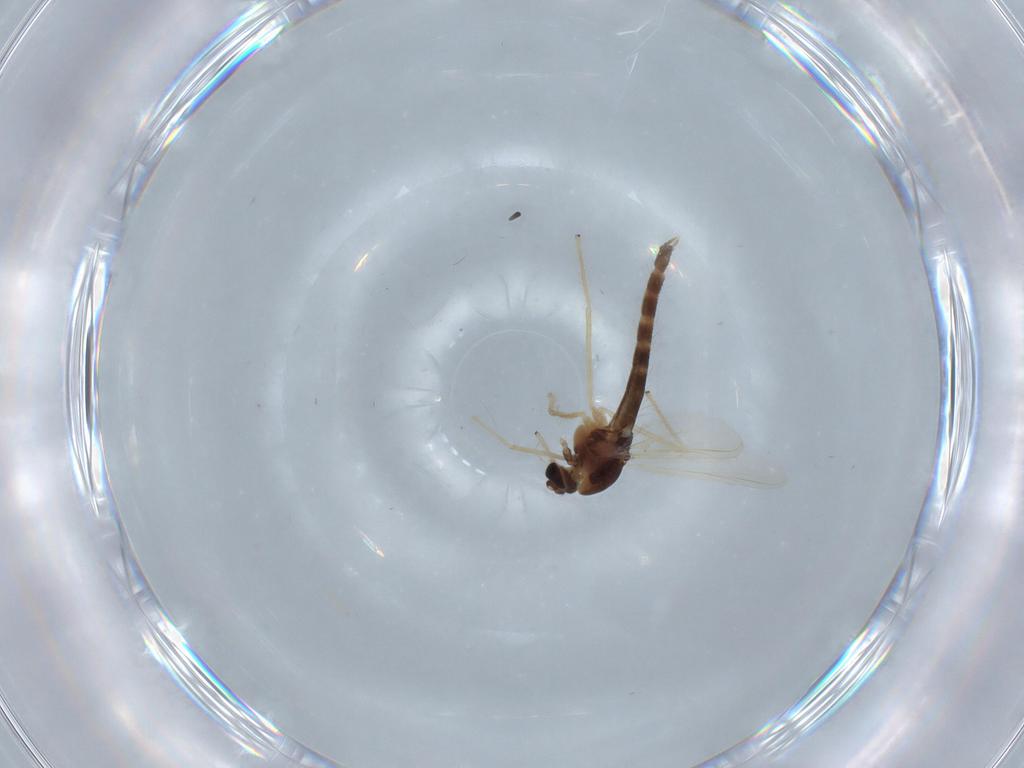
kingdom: Animalia
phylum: Arthropoda
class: Insecta
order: Diptera
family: Chironomidae
